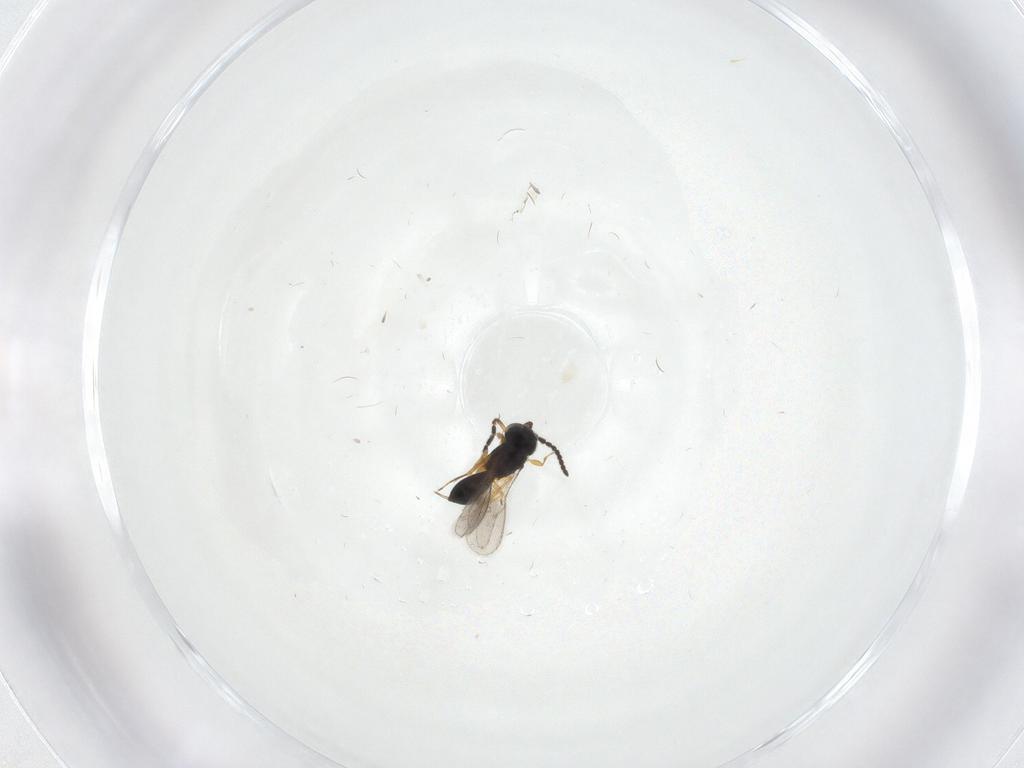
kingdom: Animalia
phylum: Arthropoda
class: Insecta
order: Hymenoptera
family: Scelionidae
